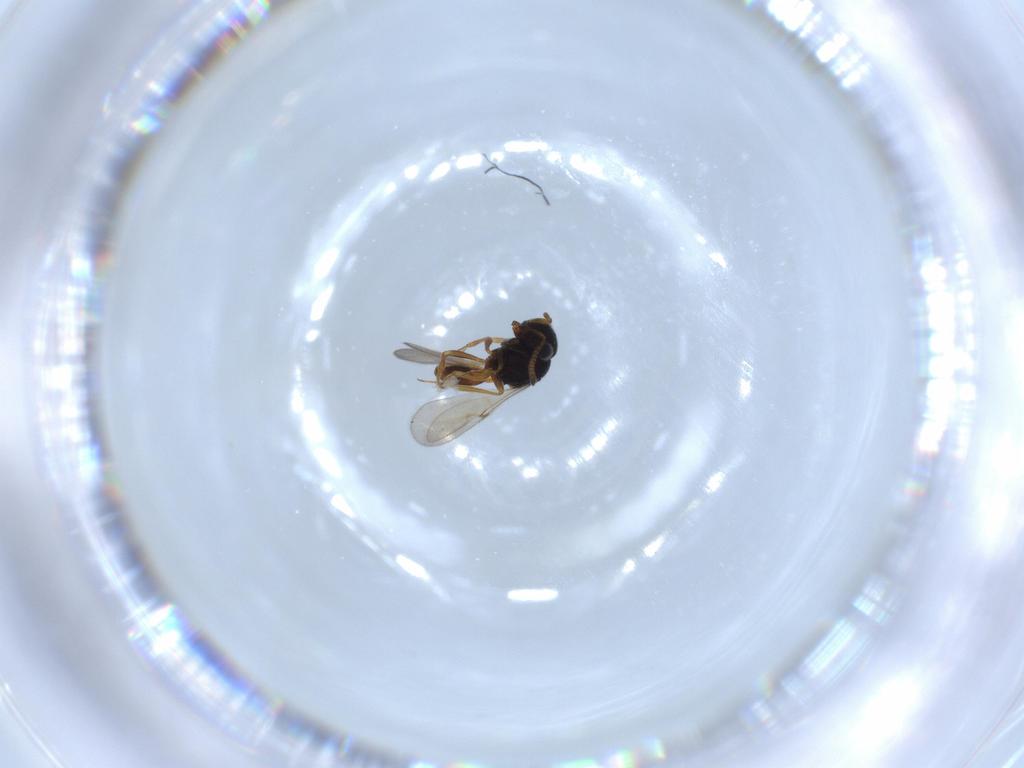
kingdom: Animalia
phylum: Arthropoda
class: Insecta
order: Hymenoptera
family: Scelionidae
